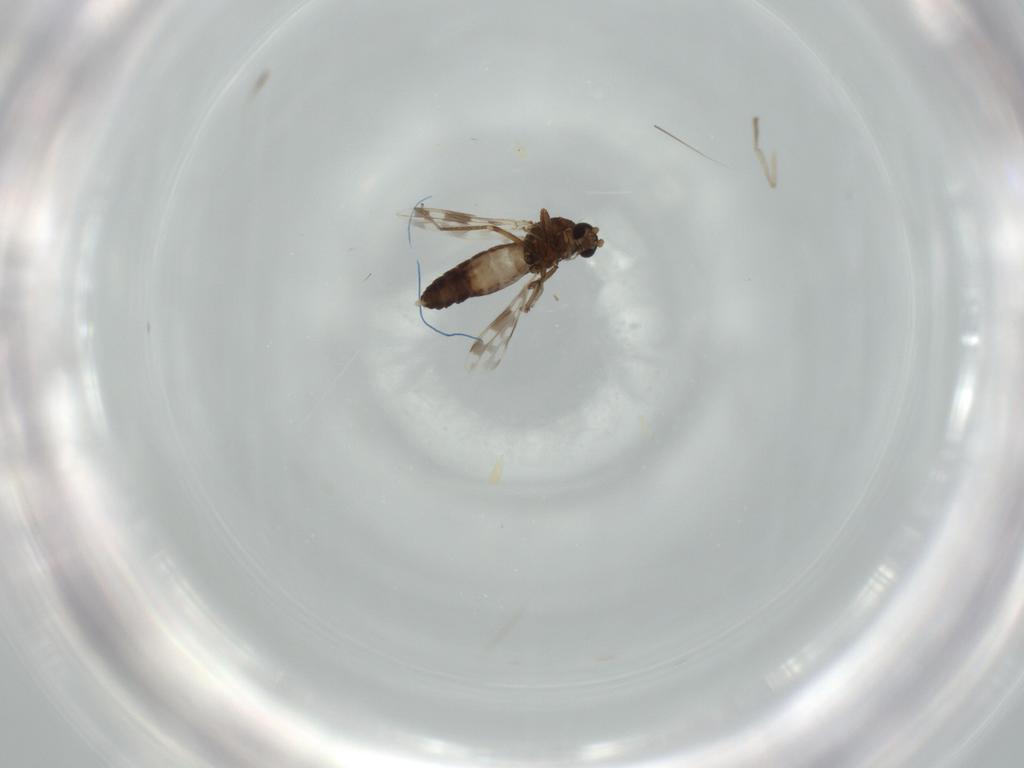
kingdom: Animalia
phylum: Arthropoda
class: Insecta
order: Diptera
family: Ceratopogonidae
